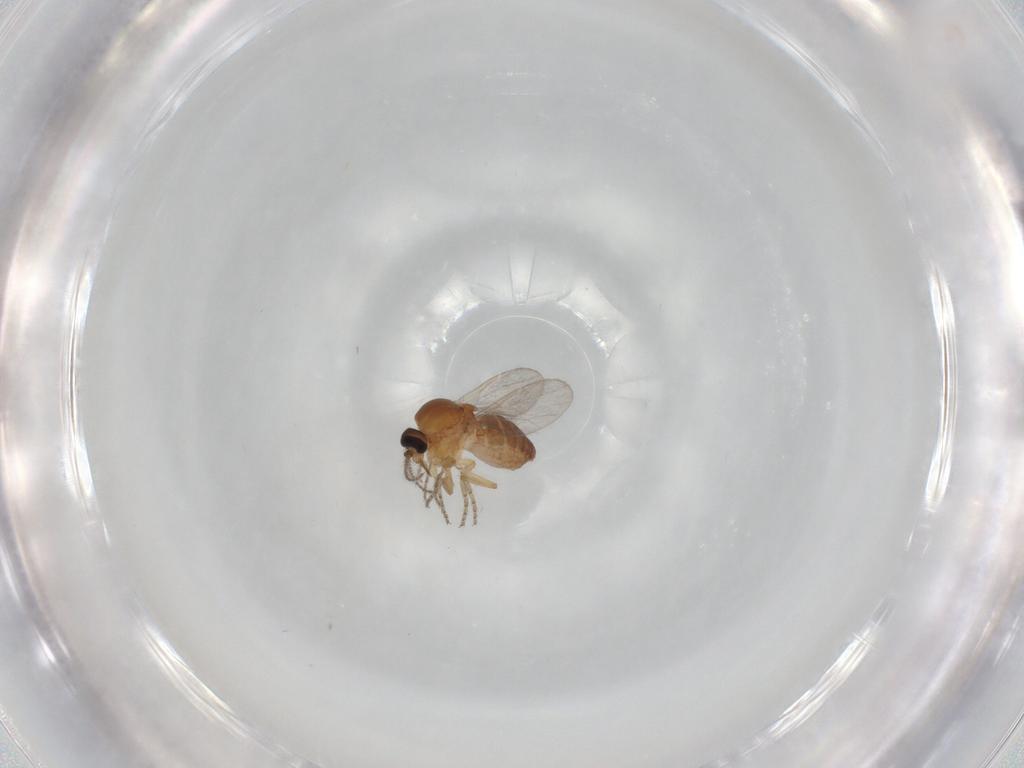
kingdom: Animalia
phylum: Arthropoda
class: Insecta
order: Diptera
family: Ceratopogonidae
